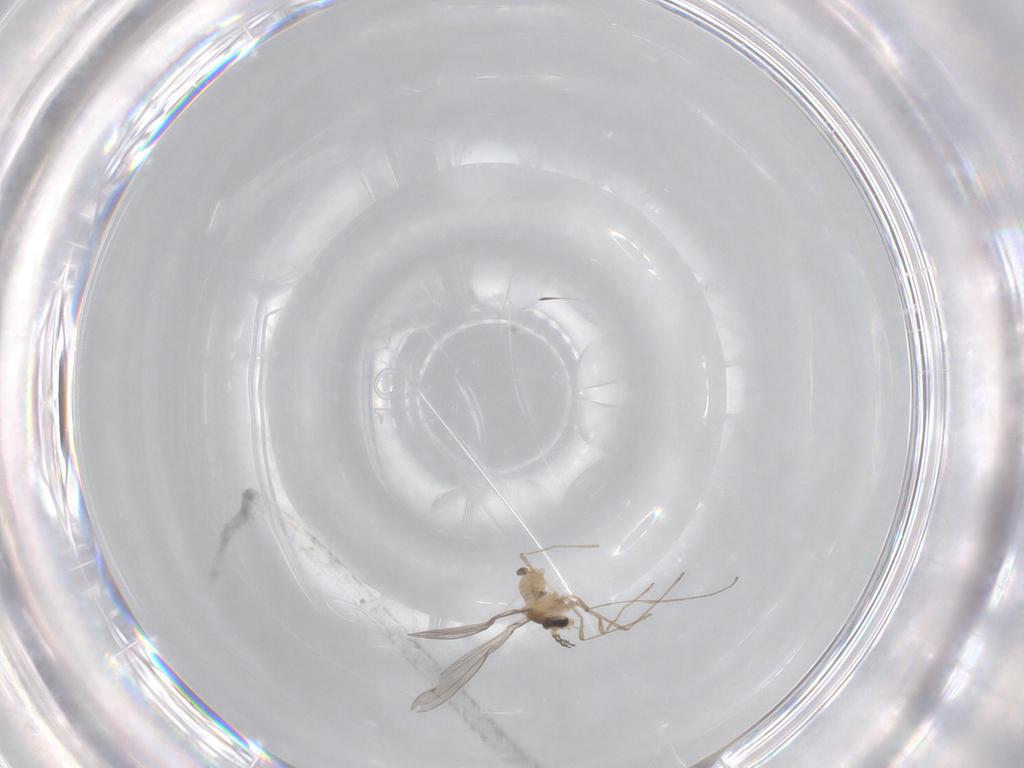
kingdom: Animalia
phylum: Arthropoda
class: Insecta
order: Diptera
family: Cecidomyiidae
